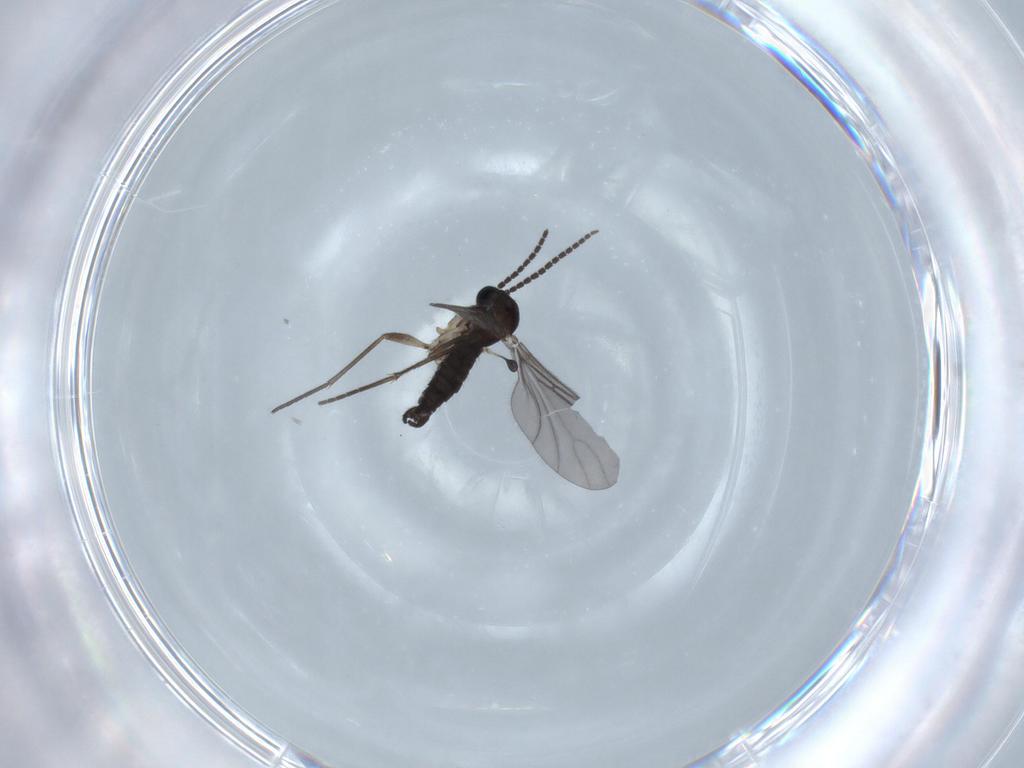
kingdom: Animalia
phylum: Arthropoda
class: Insecta
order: Diptera
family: Sciaridae
